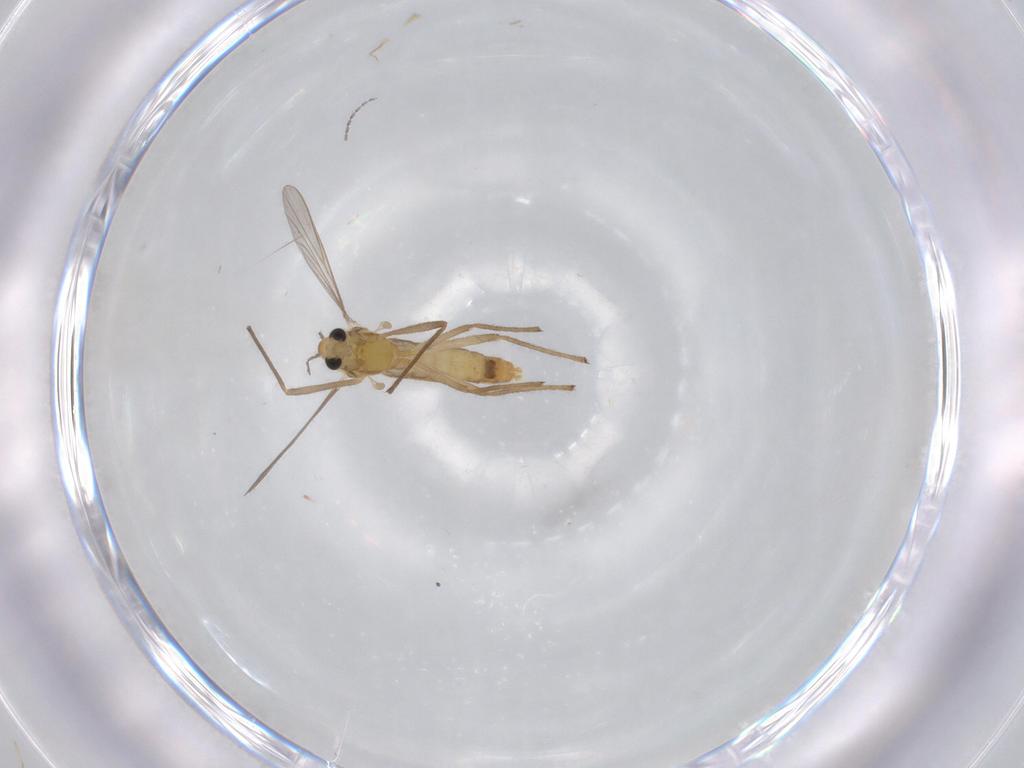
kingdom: Animalia
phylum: Arthropoda
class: Insecta
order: Diptera
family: Chironomidae
